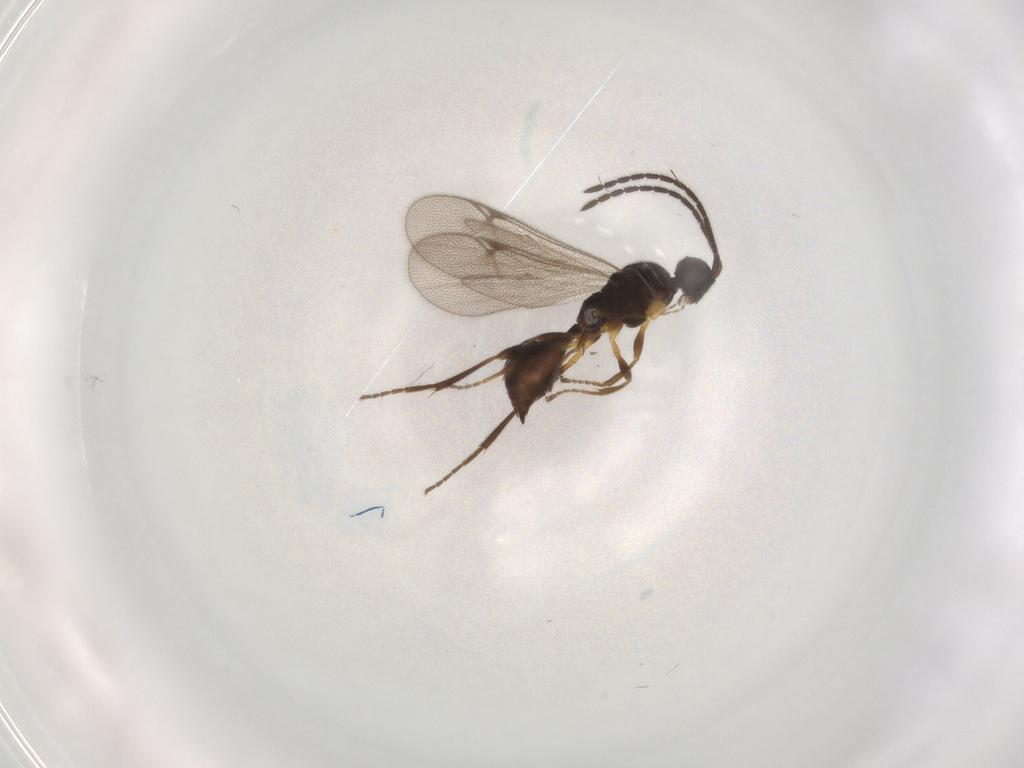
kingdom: Animalia
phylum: Arthropoda
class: Insecta
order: Hymenoptera
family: Proctotrupidae
